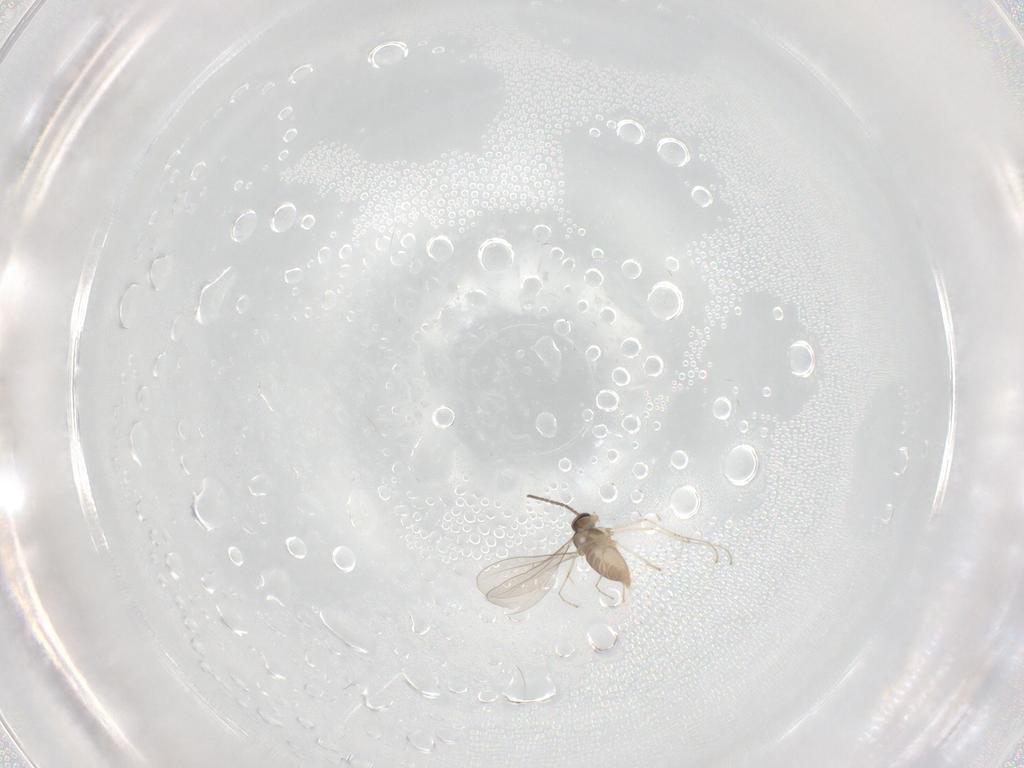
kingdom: Animalia
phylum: Arthropoda
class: Insecta
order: Diptera
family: Cecidomyiidae
